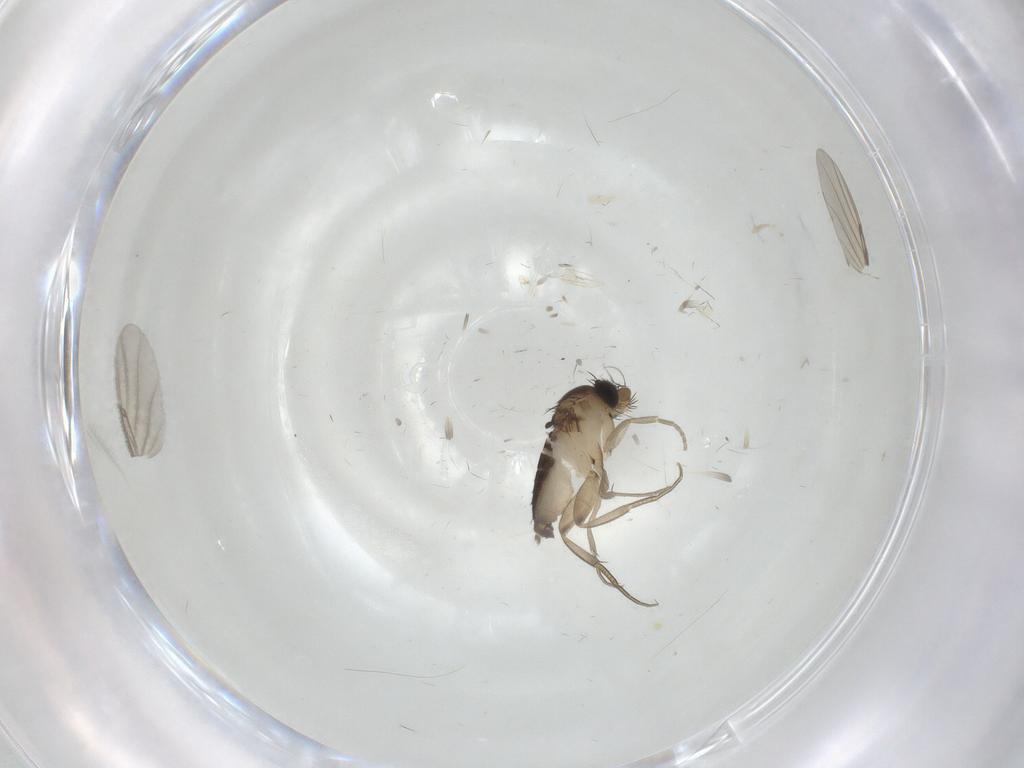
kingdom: Animalia
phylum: Arthropoda
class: Insecta
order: Diptera
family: Phoridae
